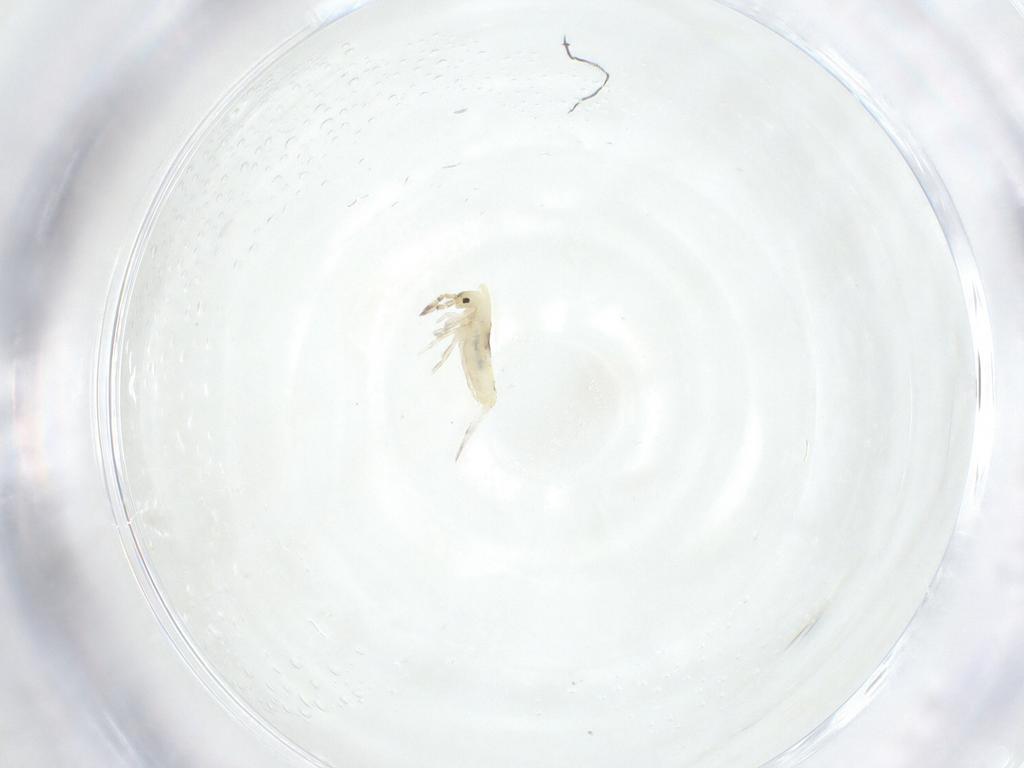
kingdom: Animalia
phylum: Arthropoda
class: Collembola
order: Entomobryomorpha
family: Entomobryidae
